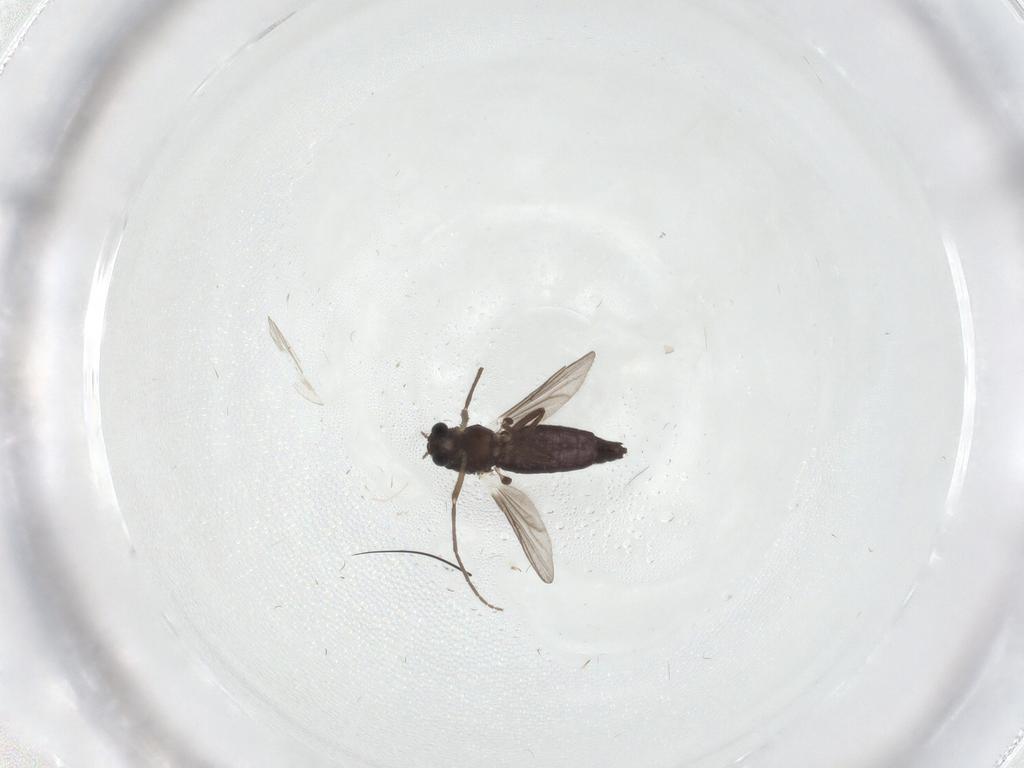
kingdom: Animalia
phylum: Arthropoda
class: Insecta
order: Diptera
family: Chironomidae
